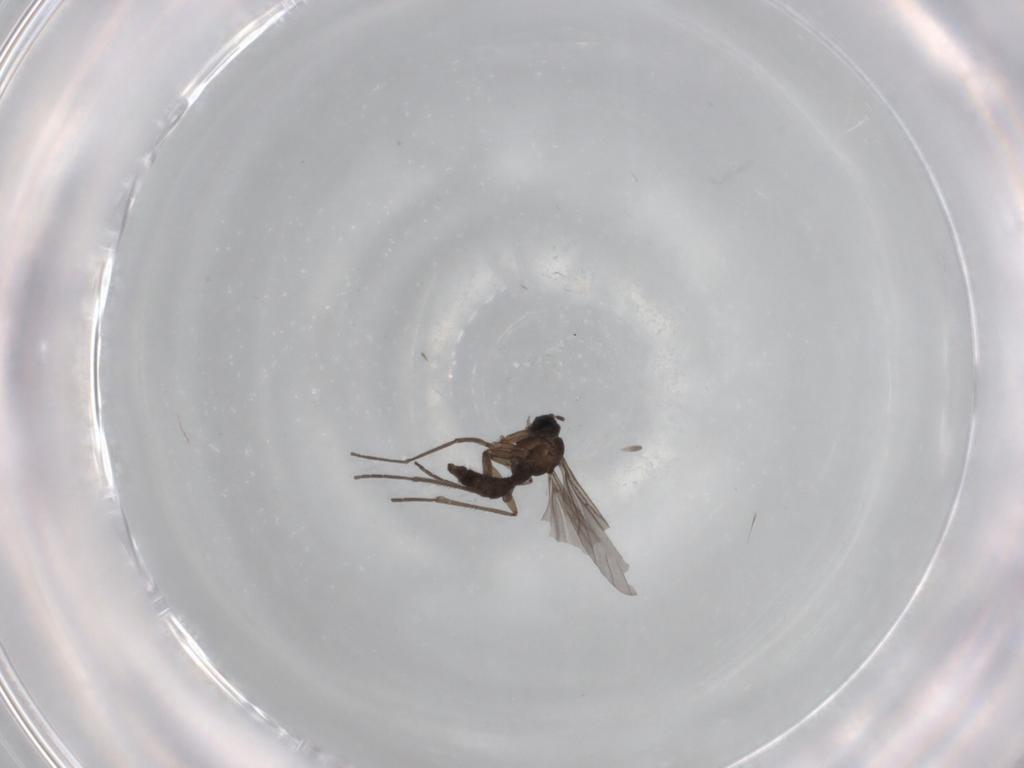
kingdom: Animalia
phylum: Arthropoda
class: Insecta
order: Diptera
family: Sciaridae
